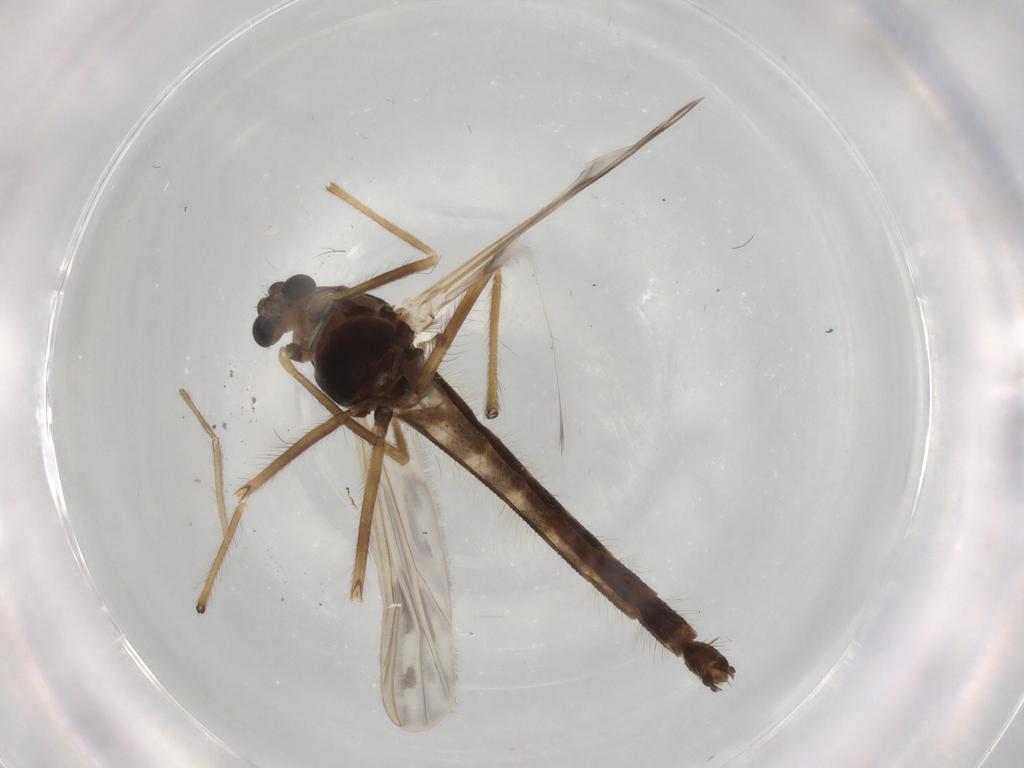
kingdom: Animalia
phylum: Arthropoda
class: Insecta
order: Diptera
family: Chironomidae
